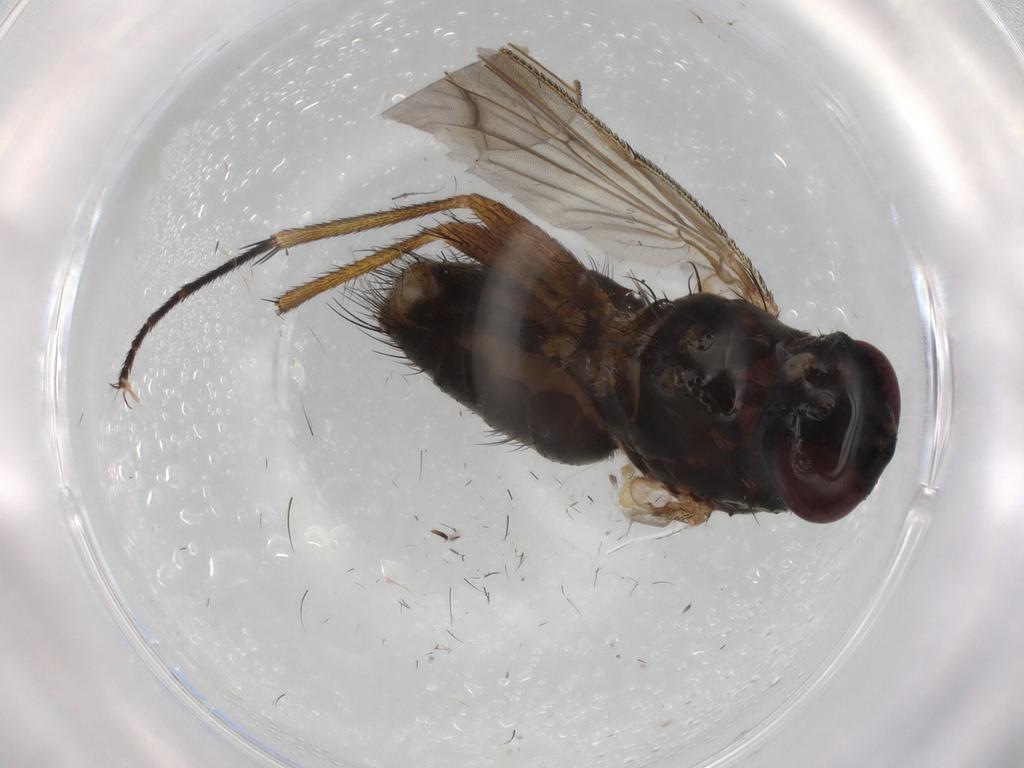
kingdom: Animalia
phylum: Arthropoda
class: Insecta
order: Diptera
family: Muscidae
